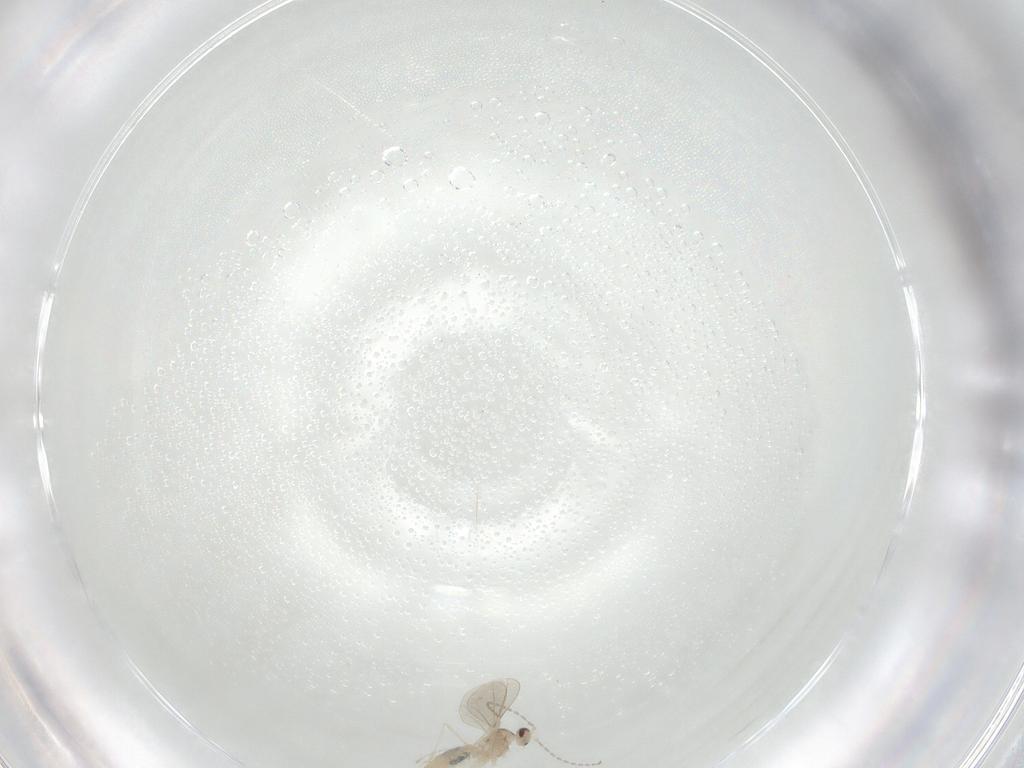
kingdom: Animalia
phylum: Arthropoda
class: Insecta
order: Diptera
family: Cecidomyiidae
